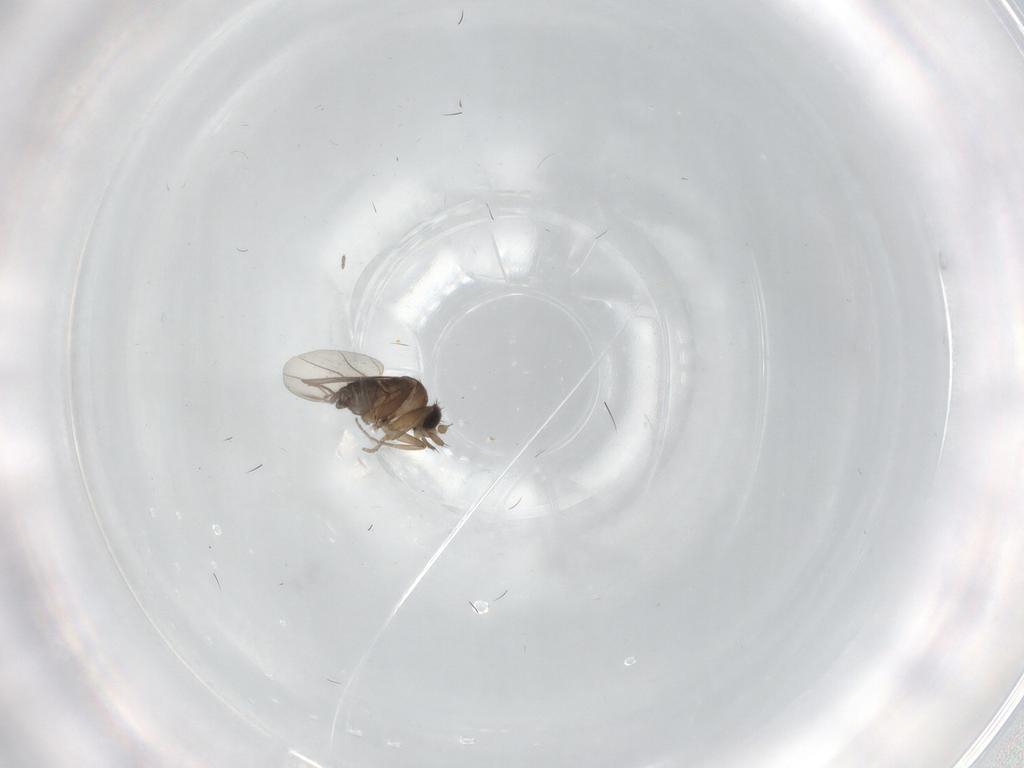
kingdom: Animalia
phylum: Arthropoda
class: Insecta
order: Diptera
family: Phoridae
